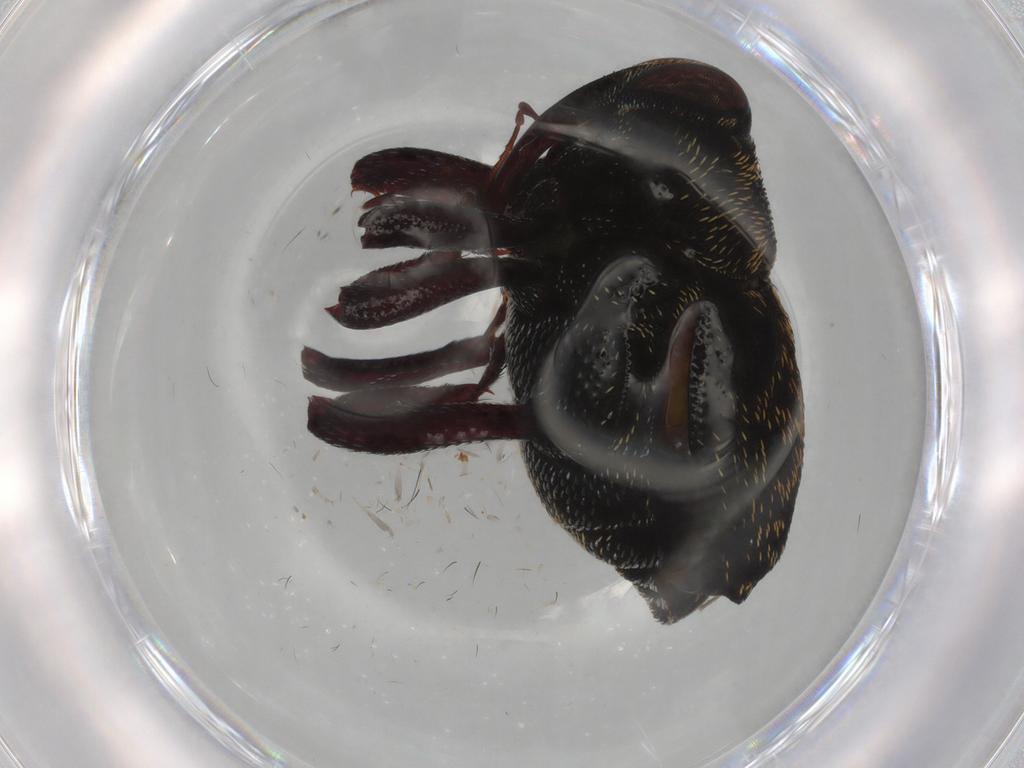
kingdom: Animalia
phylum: Arthropoda
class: Insecta
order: Coleoptera
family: Curculionidae
